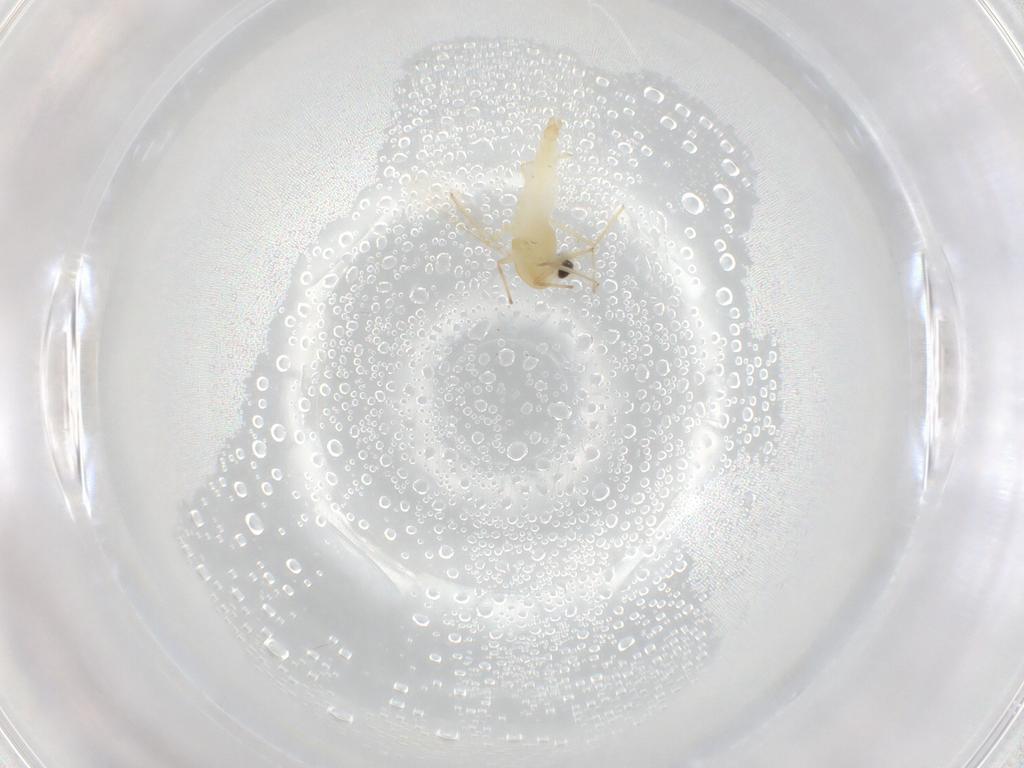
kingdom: Animalia
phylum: Arthropoda
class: Insecta
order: Diptera
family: Chironomidae
